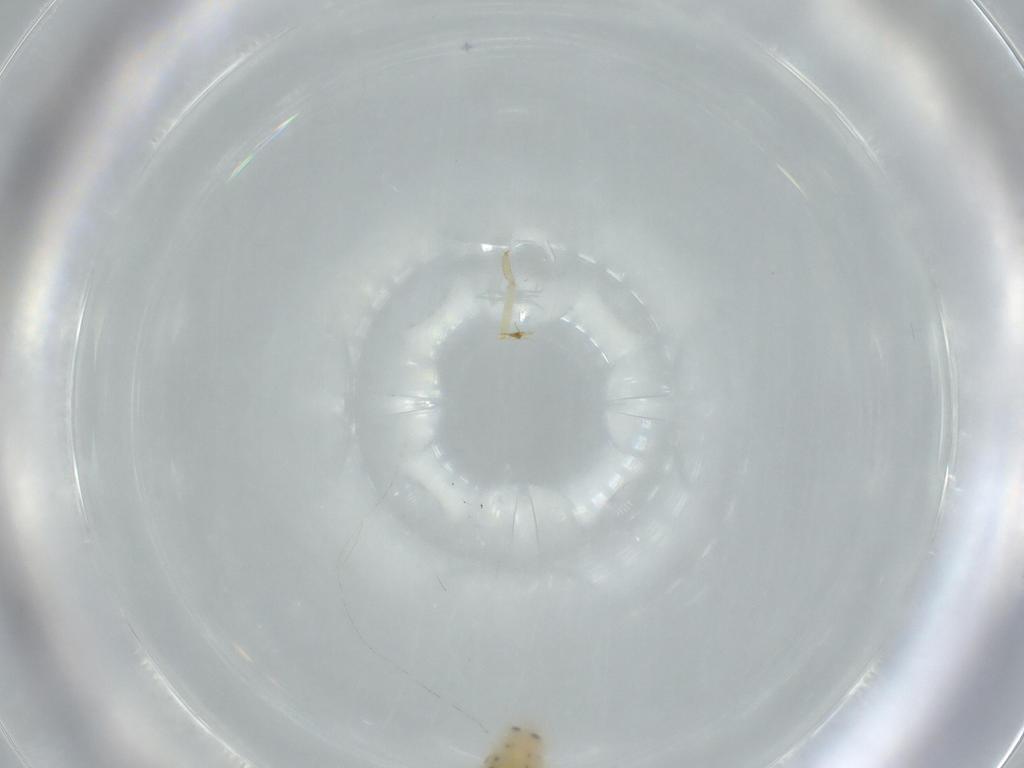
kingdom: Animalia
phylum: Arthropoda
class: Insecta
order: Hemiptera
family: Tropiduchidae
